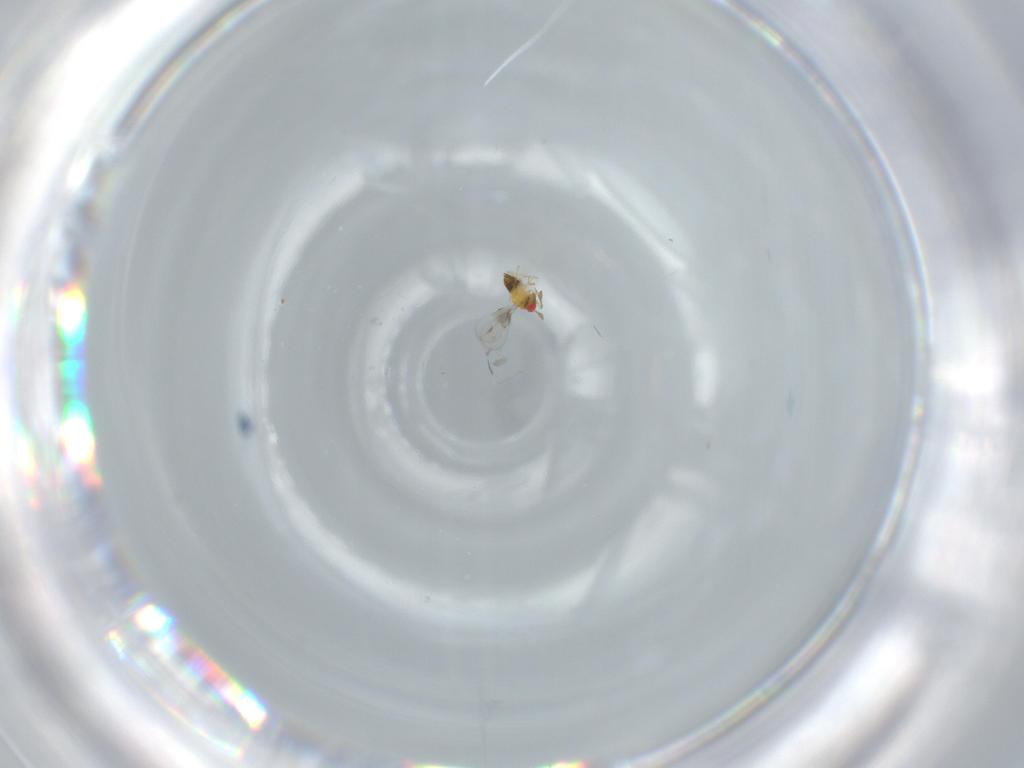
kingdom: Animalia
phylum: Arthropoda
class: Insecta
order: Hymenoptera
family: Trichogrammatidae
